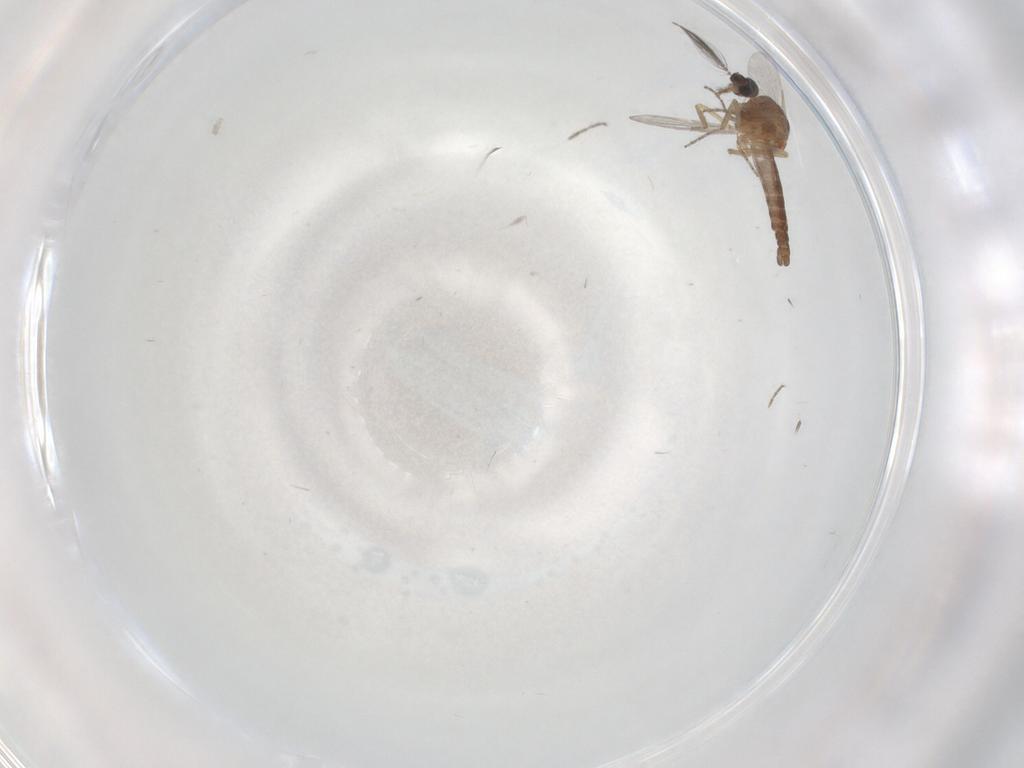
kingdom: Animalia
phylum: Arthropoda
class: Insecta
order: Diptera
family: Ceratopogonidae
